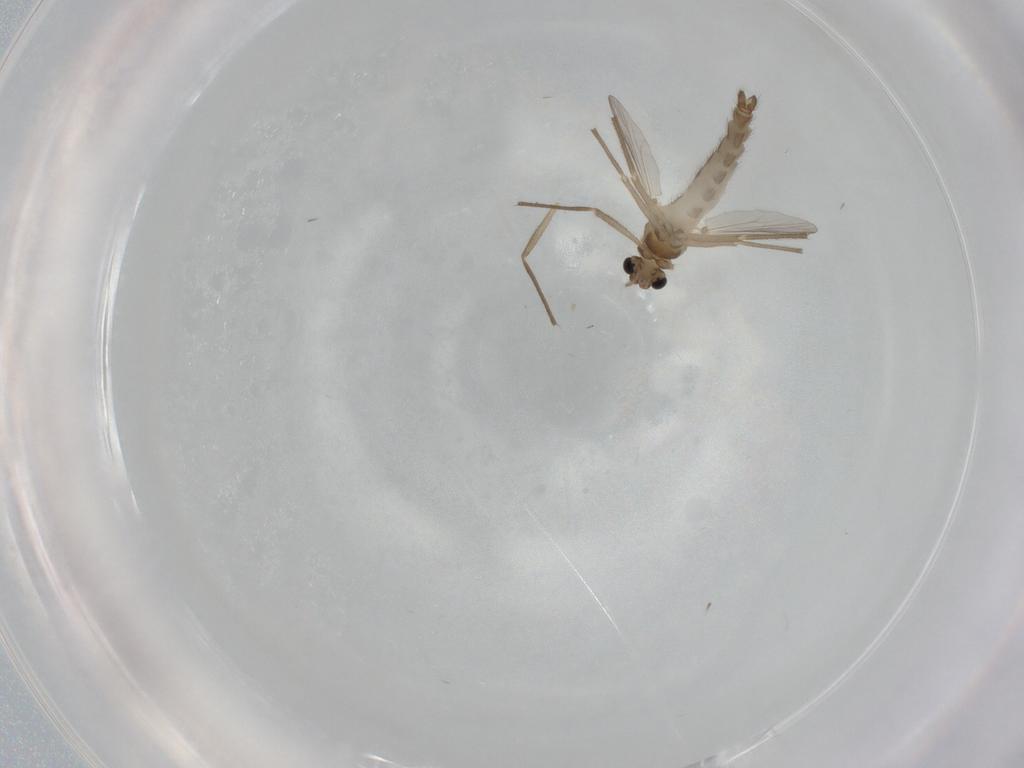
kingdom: Animalia
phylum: Arthropoda
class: Insecta
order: Diptera
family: Chironomidae
